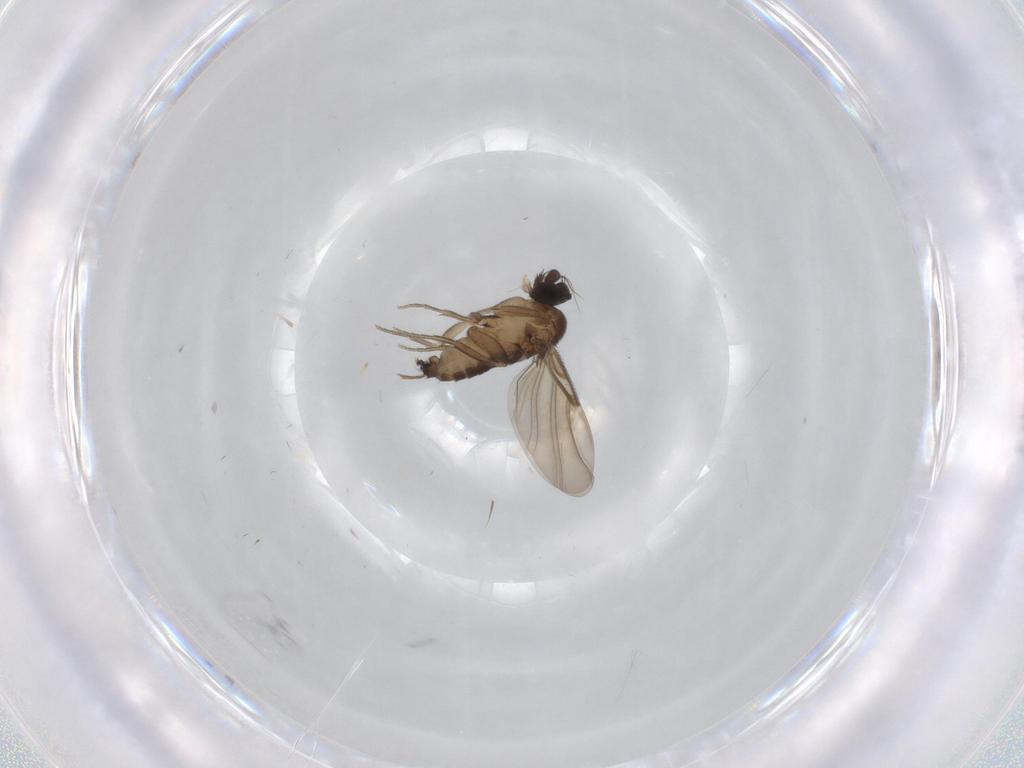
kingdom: Animalia
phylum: Arthropoda
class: Insecta
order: Diptera
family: Phoridae
